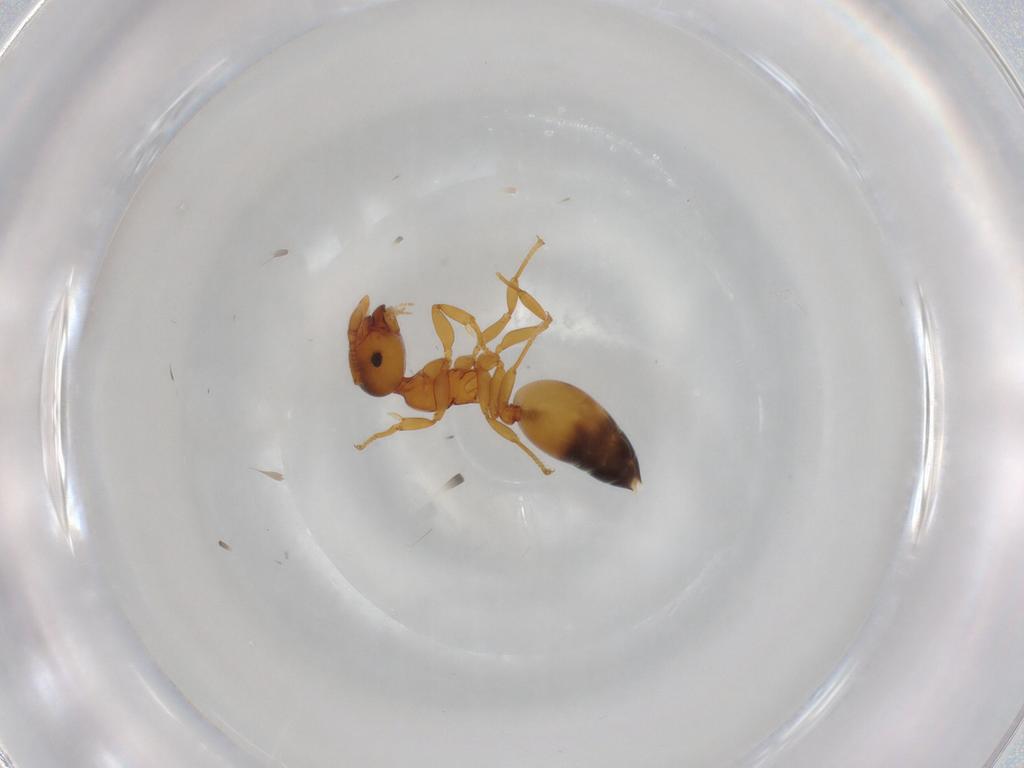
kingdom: Animalia
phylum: Arthropoda
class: Insecta
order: Hymenoptera
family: Formicidae
